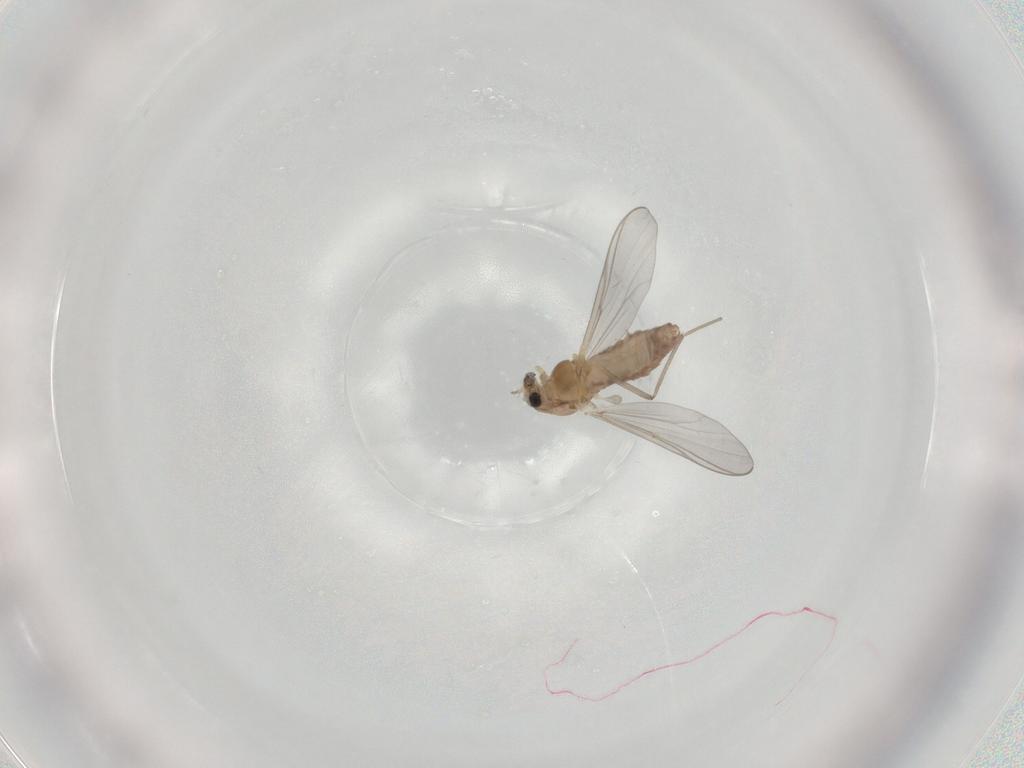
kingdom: Animalia
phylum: Arthropoda
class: Insecta
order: Diptera
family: Chironomidae
